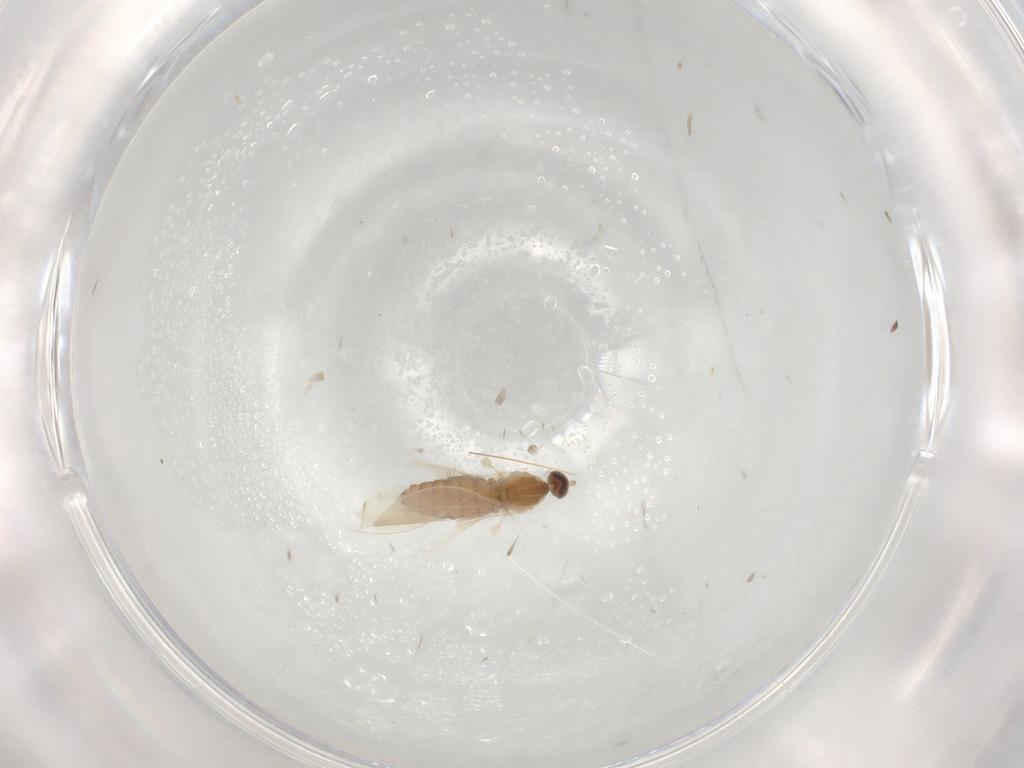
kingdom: Animalia
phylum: Arthropoda
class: Insecta
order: Diptera
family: Cecidomyiidae
